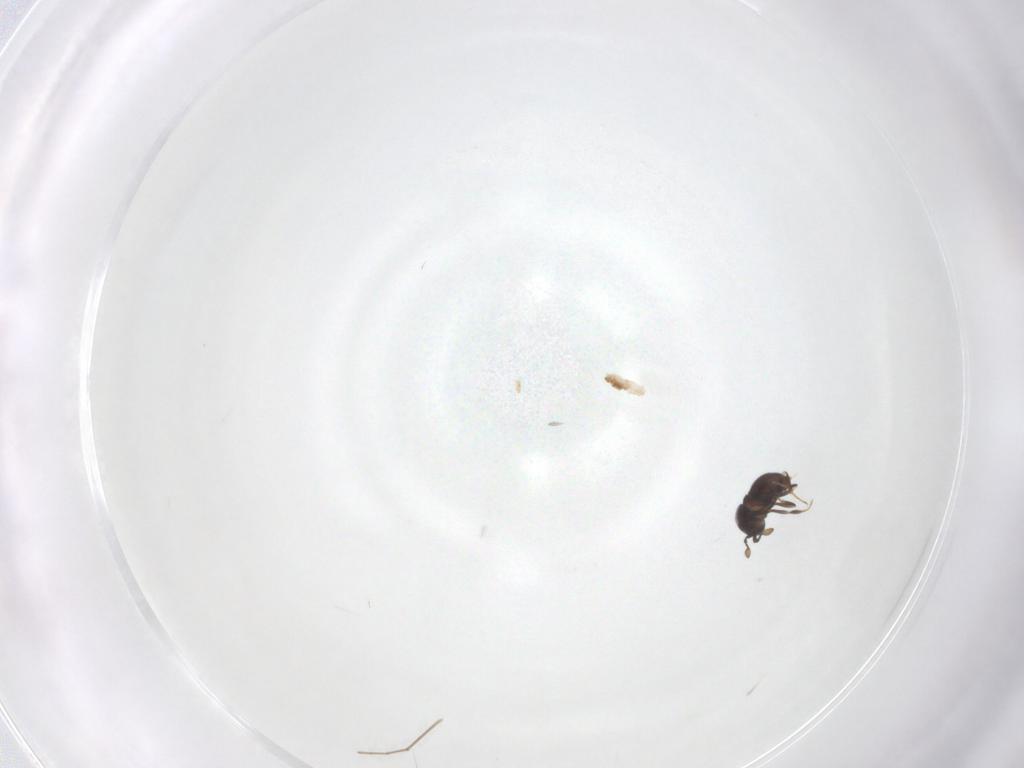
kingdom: Animalia
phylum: Arthropoda
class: Insecta
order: Hymenoptera
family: Scelionidae
